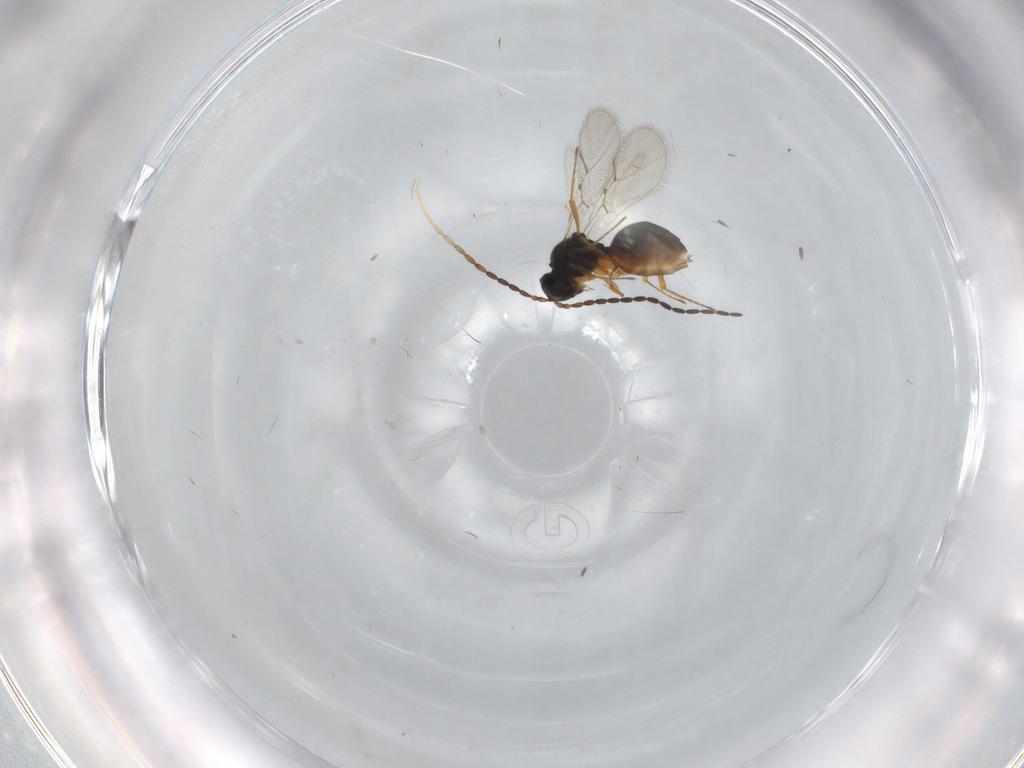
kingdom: Animalia
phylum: Arthropoda
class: Insecta
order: Hymenoptera
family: Figitidae
